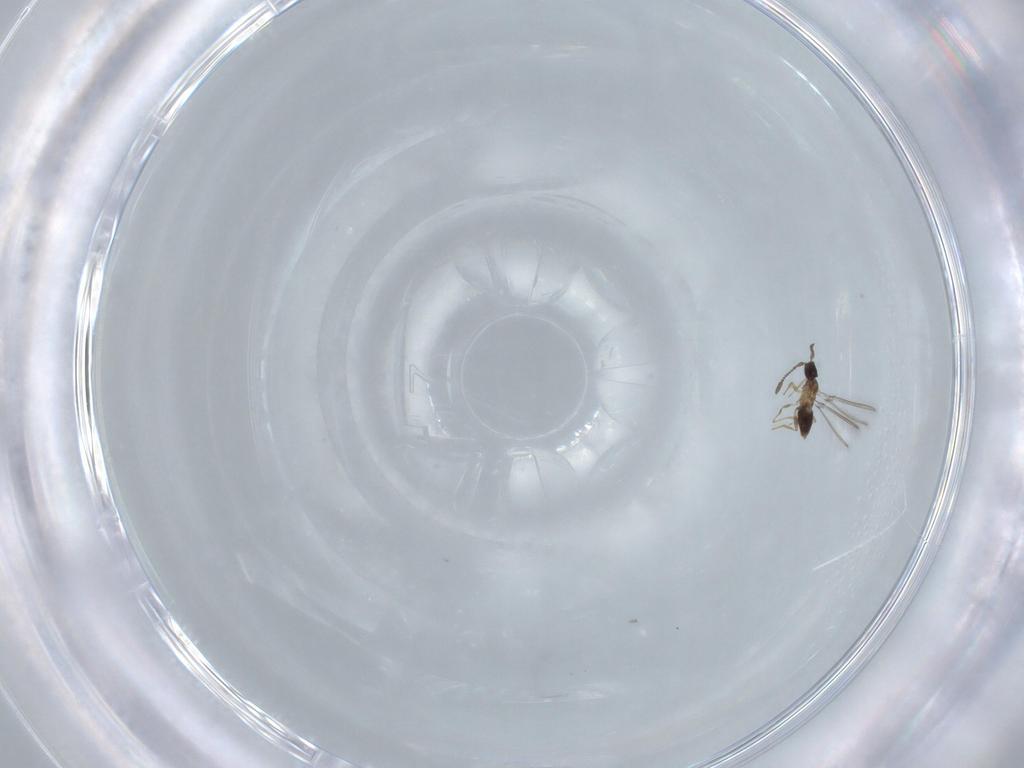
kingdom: Animalia
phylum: Arthropoda
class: Insecta
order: Hymenoptera
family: Mymaridae
